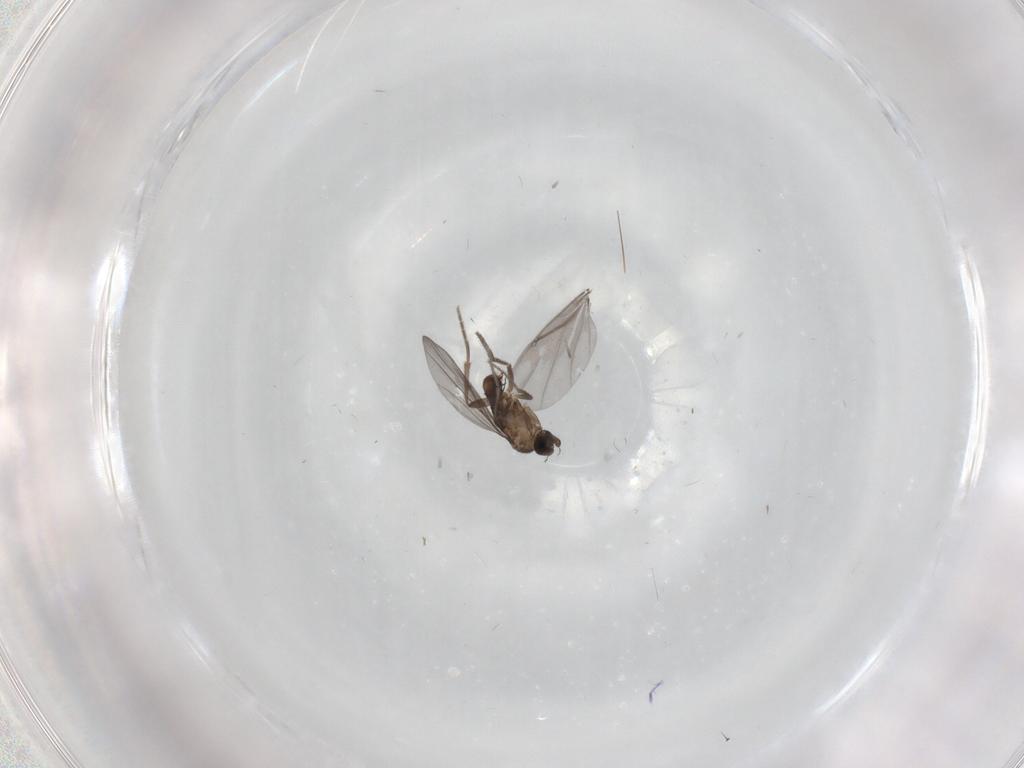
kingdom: Animalia
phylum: Arthropoda
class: Insecta
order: Diptera
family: Phoridae
